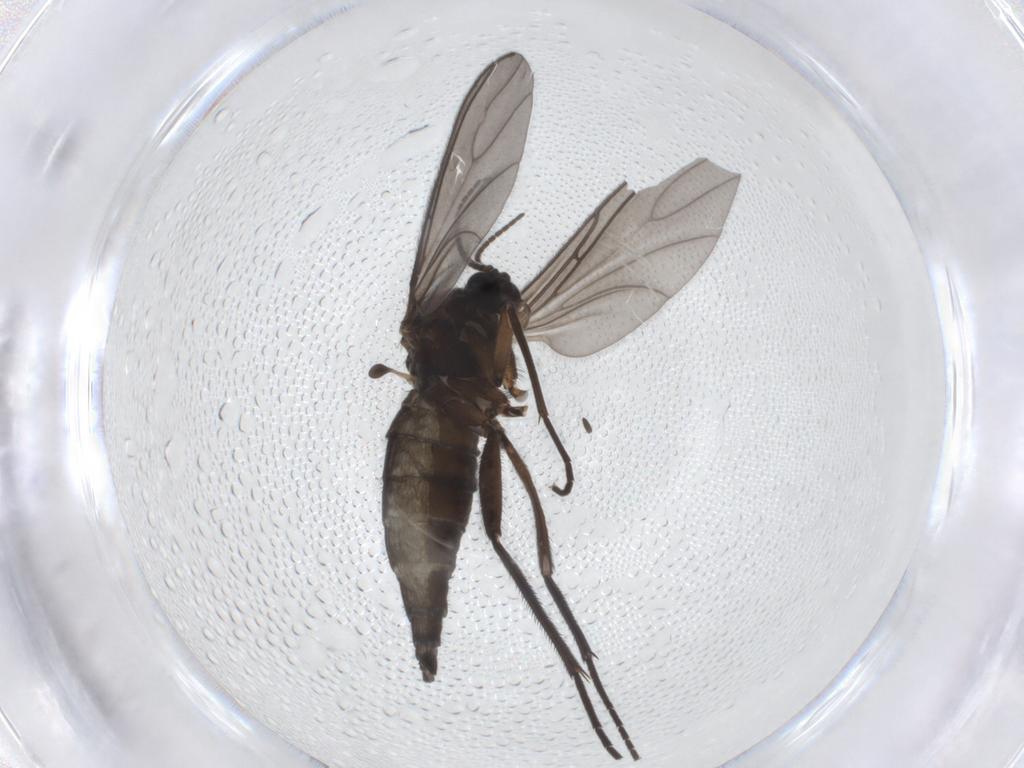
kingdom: Animalia
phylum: Arthropoda
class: Insecta
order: Diptera
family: Sciaridae
